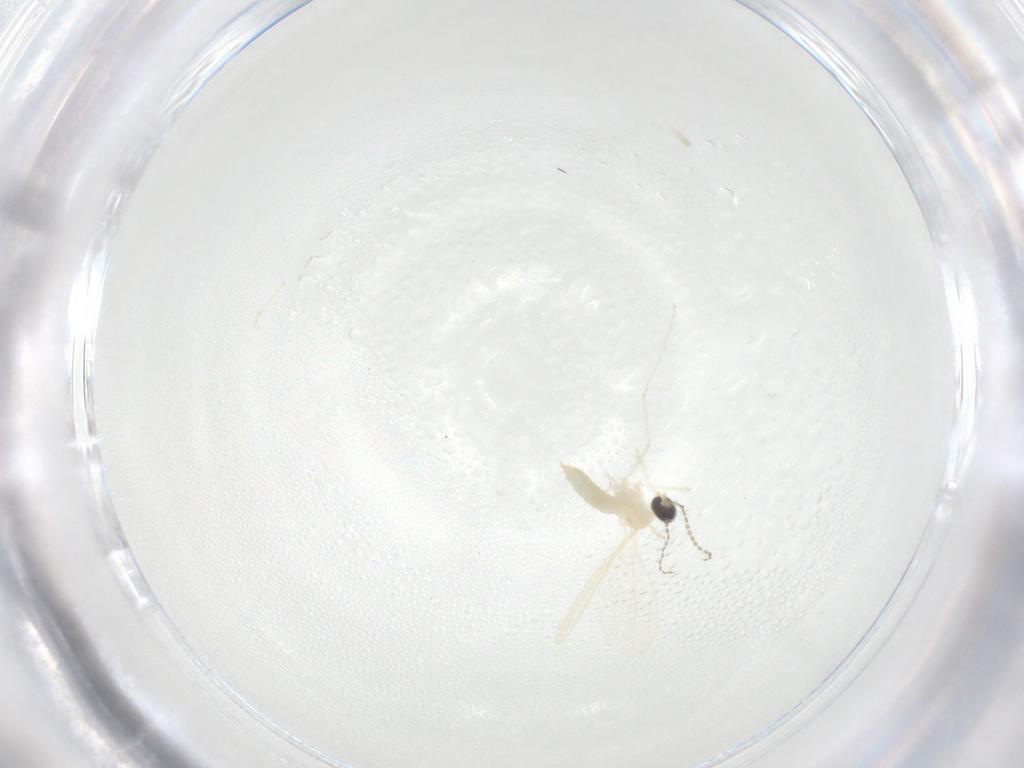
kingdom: Animalia
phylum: Arthropoda
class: Insecta
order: Diptera
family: Cecidomyiidae
